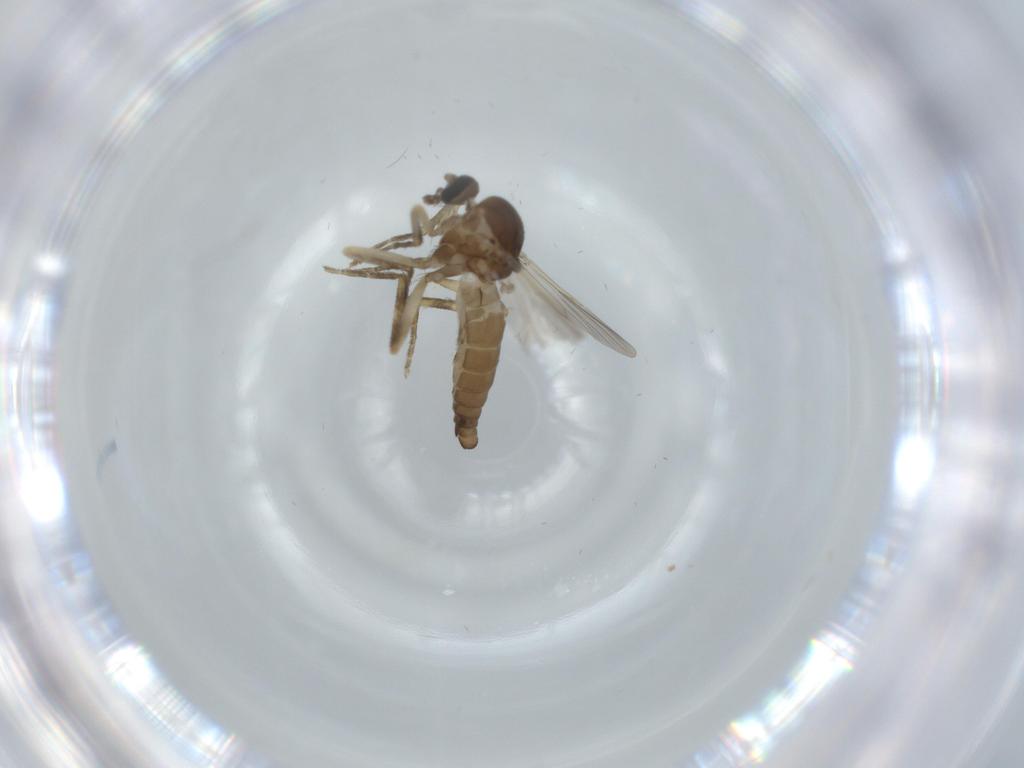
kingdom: Animalia
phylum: Arthropoda
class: Insecta
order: Diptera
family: Ceratopogonidae
